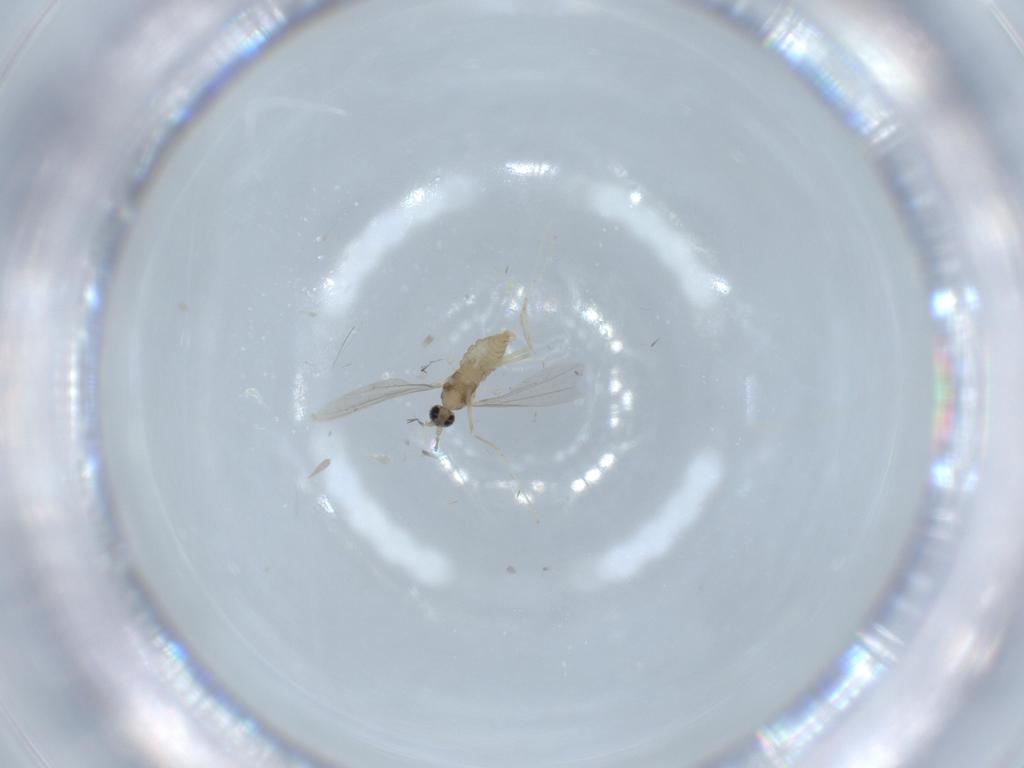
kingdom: Animalia
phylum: Arthropoda
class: Insecta
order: Diptera
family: Cecidomyiidae
